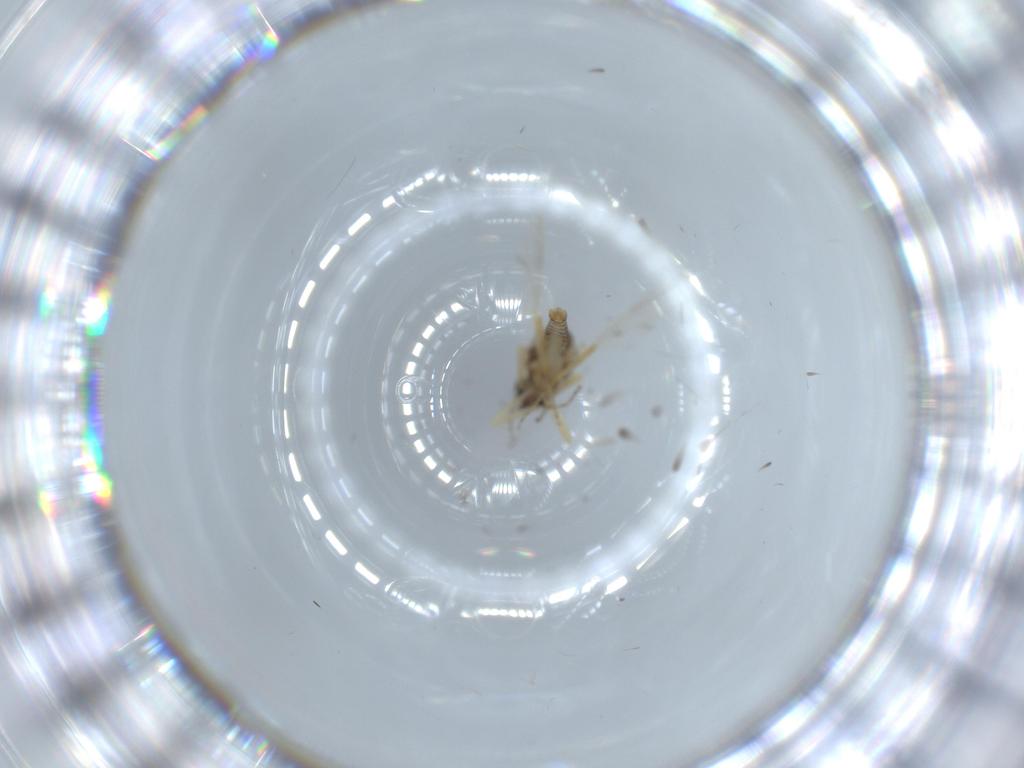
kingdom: Animalia
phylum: Arthropoda
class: Insecta
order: Diptera
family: Ceratopogonidae
